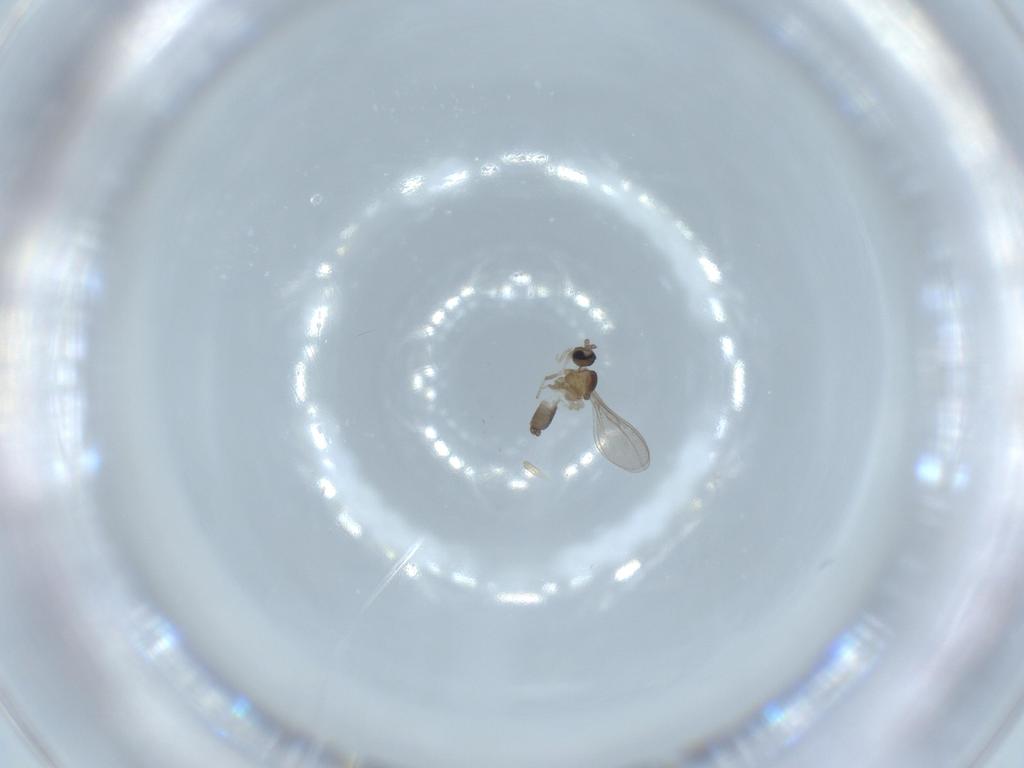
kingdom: Animalia
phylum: Arthropoda
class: Insecta
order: Diptera
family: Cecidomyiidae
